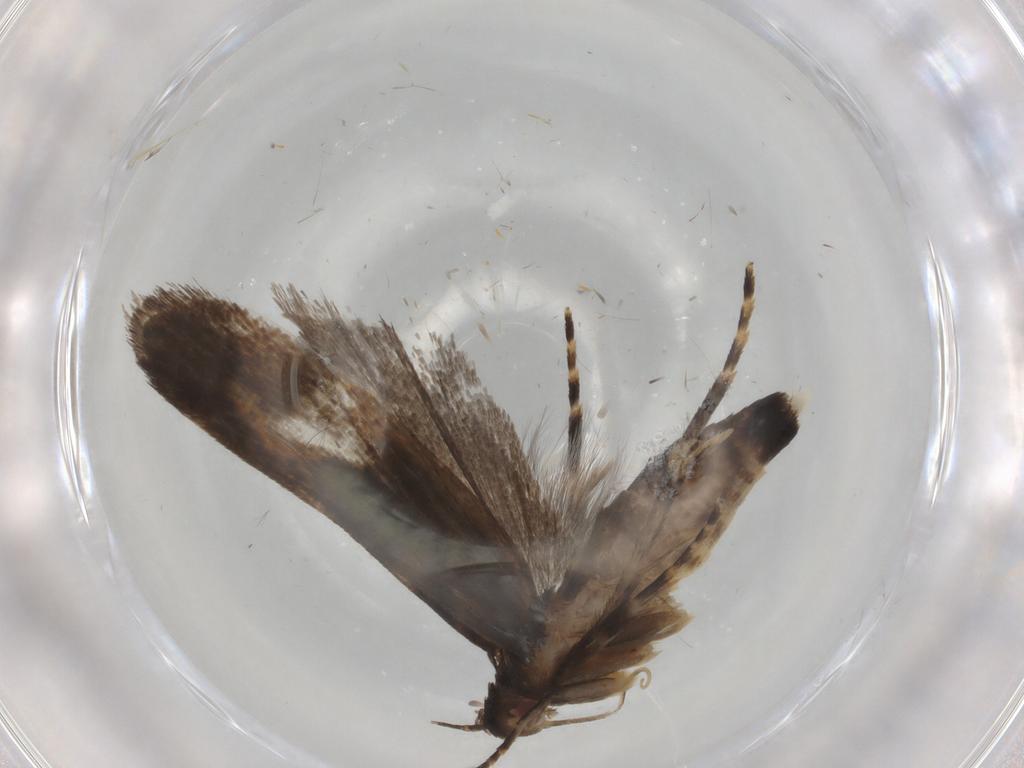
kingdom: Animalia
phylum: Arthropoda
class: Insecta
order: Lepidoptera
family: Gelechiidae
